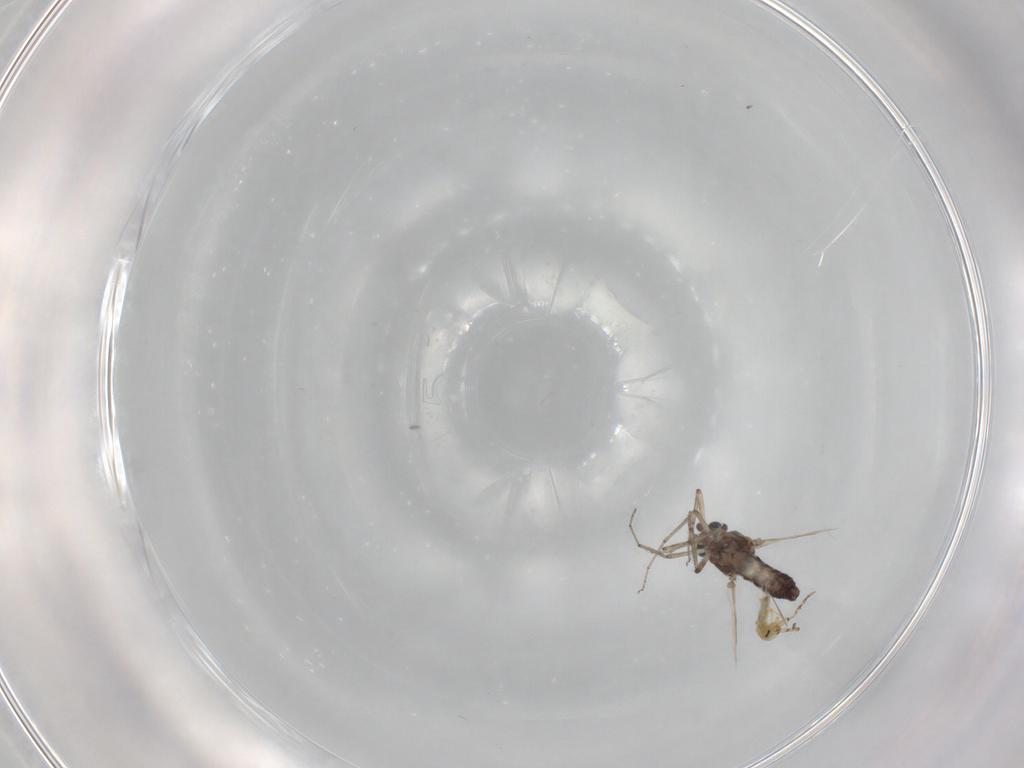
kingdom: Animalia
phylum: Arthropoda
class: Insecta
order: Diptera
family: Ceratopogonidae
